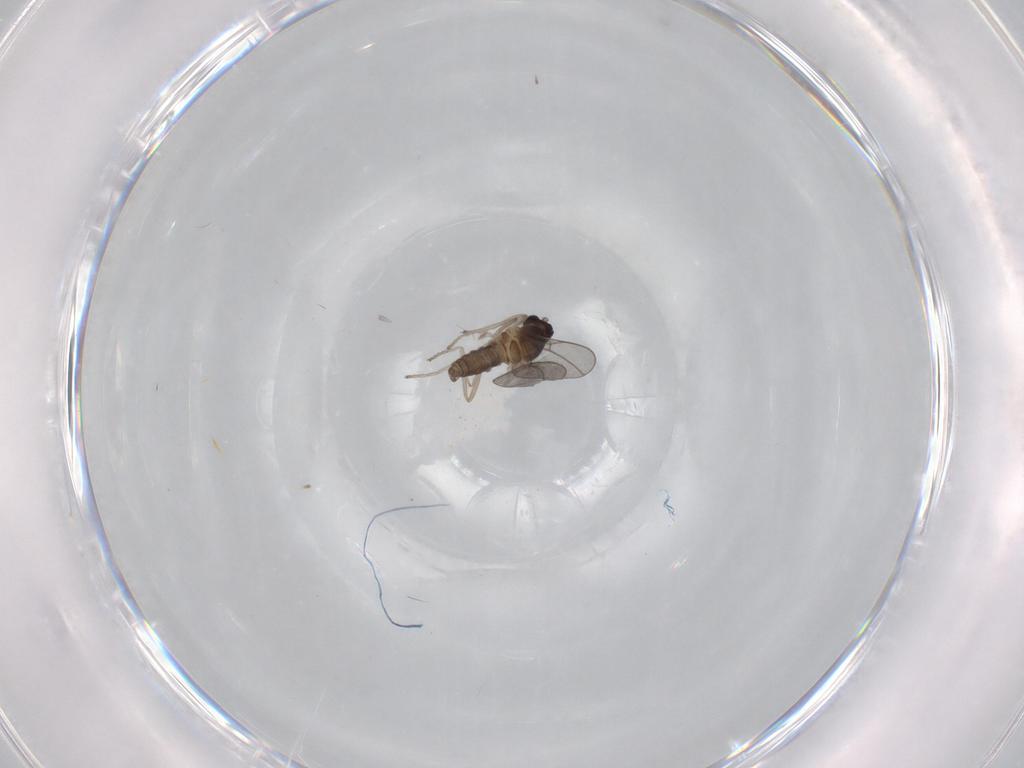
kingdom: Animalia
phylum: Arthropoda
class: Insecta
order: Diptera
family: Cecidomyiidae
